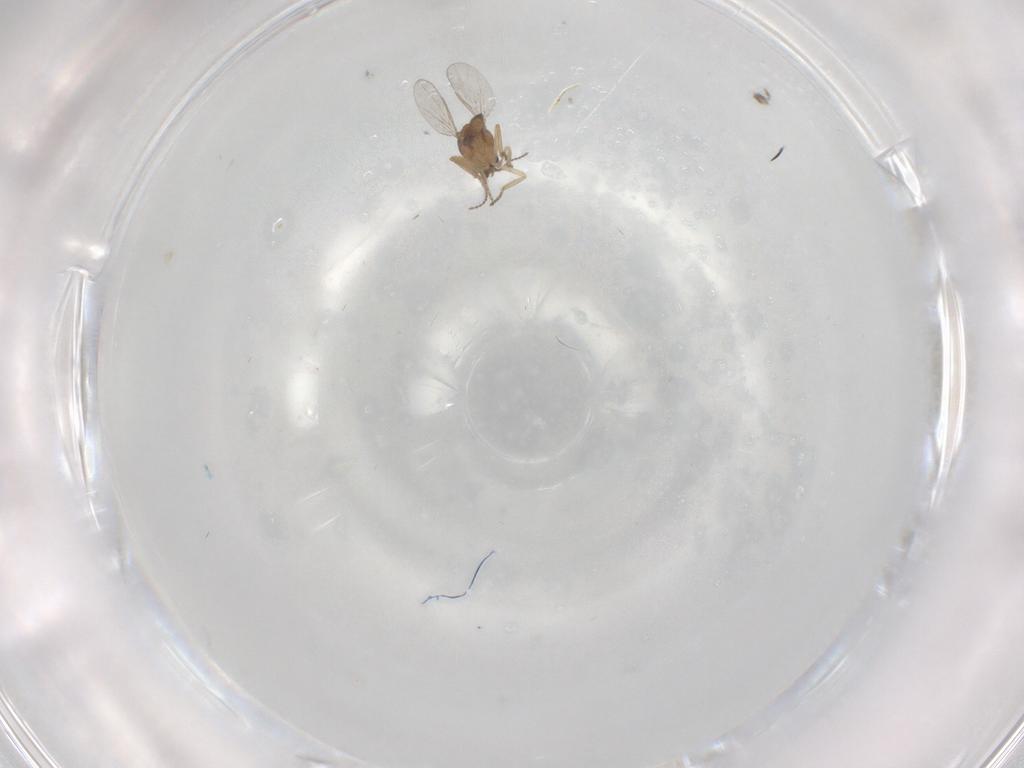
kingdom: Animalia
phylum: Arthropoda
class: Insecta
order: Diptera
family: Ceratopogonidae
